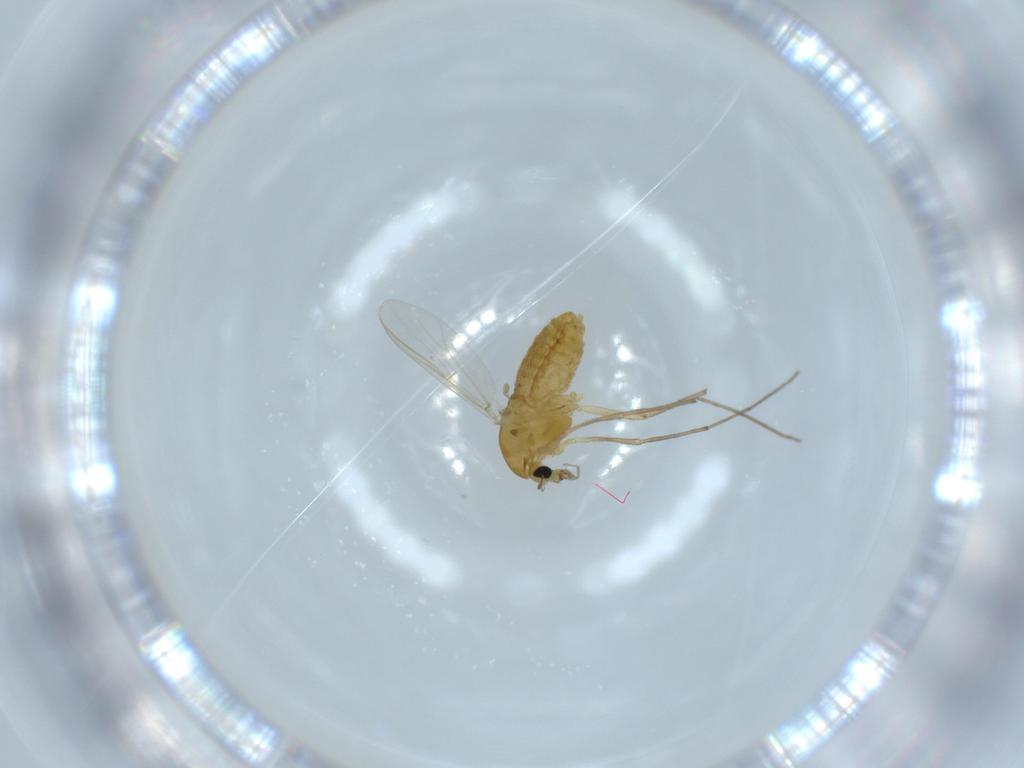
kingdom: Animalia
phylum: Arthropoda
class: Insecta
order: Diptera
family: Chironomidae
